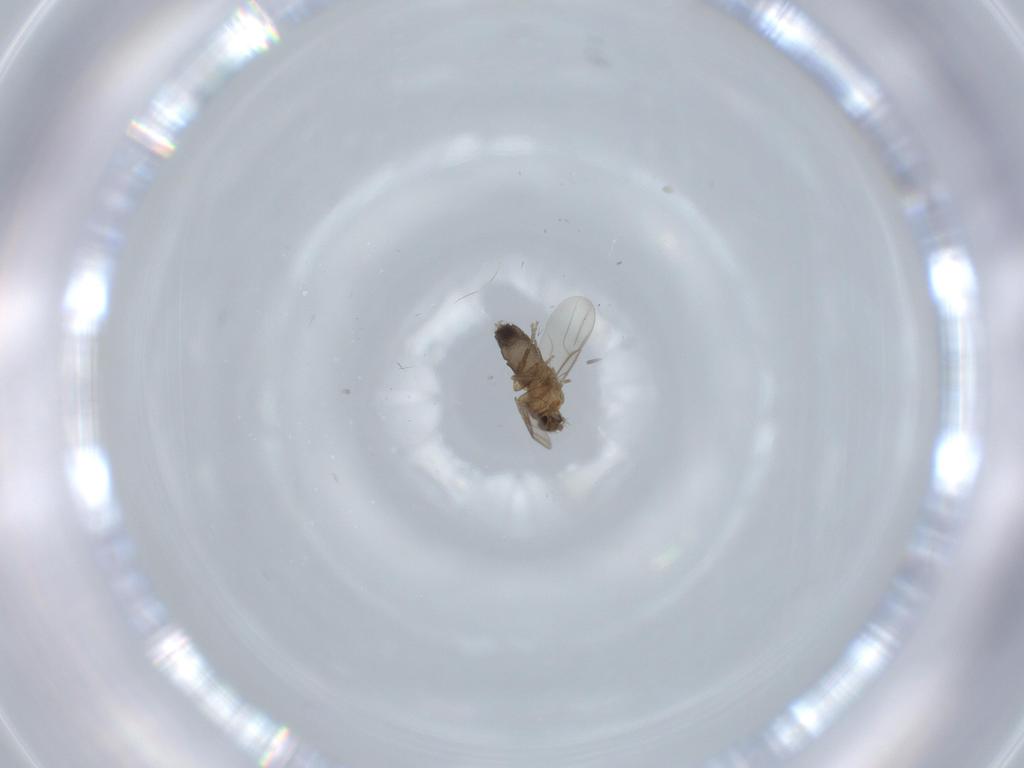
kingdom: Animalia
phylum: Arthropoda
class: Insecta
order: Diptera
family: Phoridae
